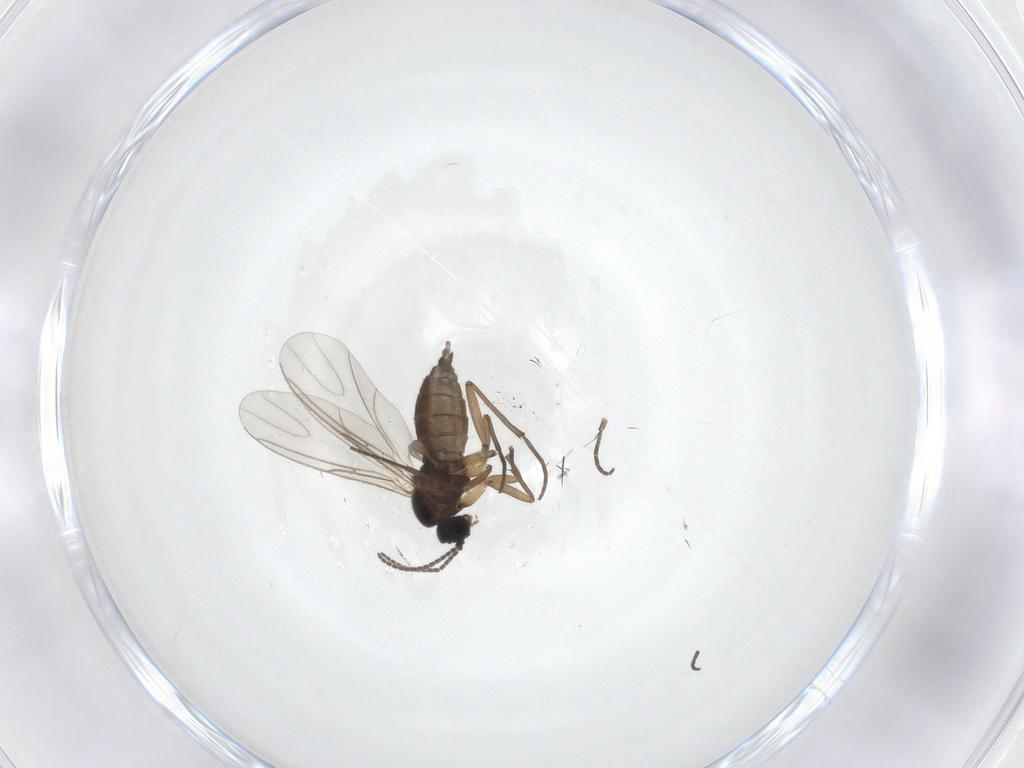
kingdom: Animalia
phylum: Arthropoda
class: Insecta
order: Diptera
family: Sciaridae
